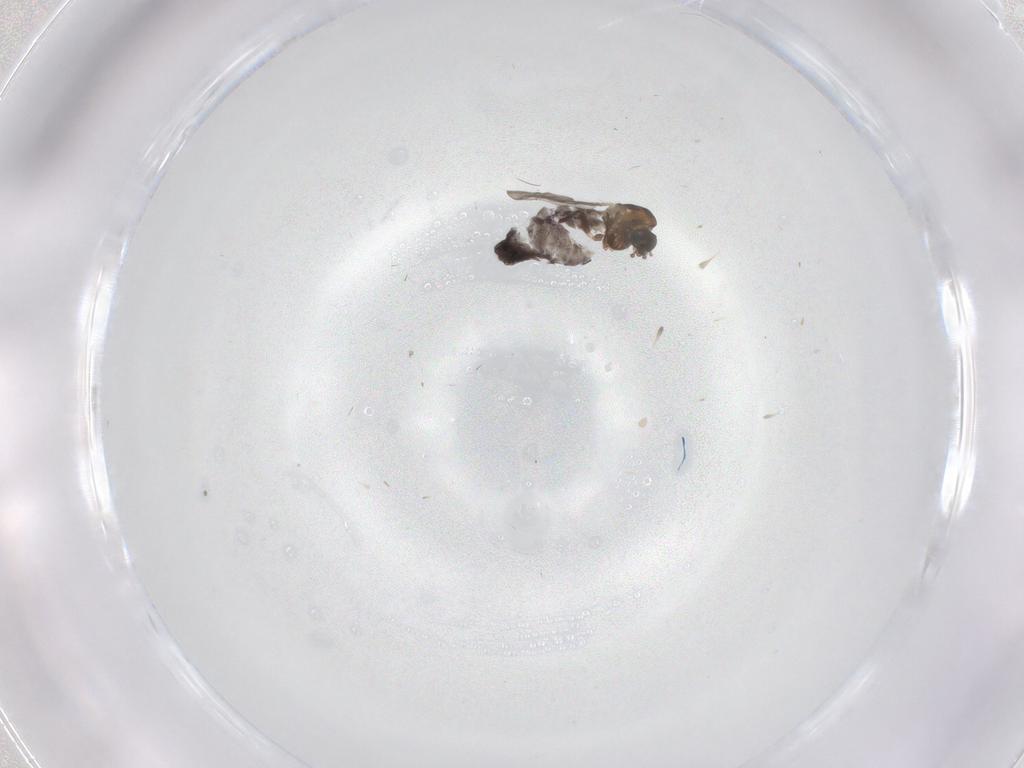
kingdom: Animalia
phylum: Arthropoda
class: Insecta
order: Diptera
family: Chironomidae
